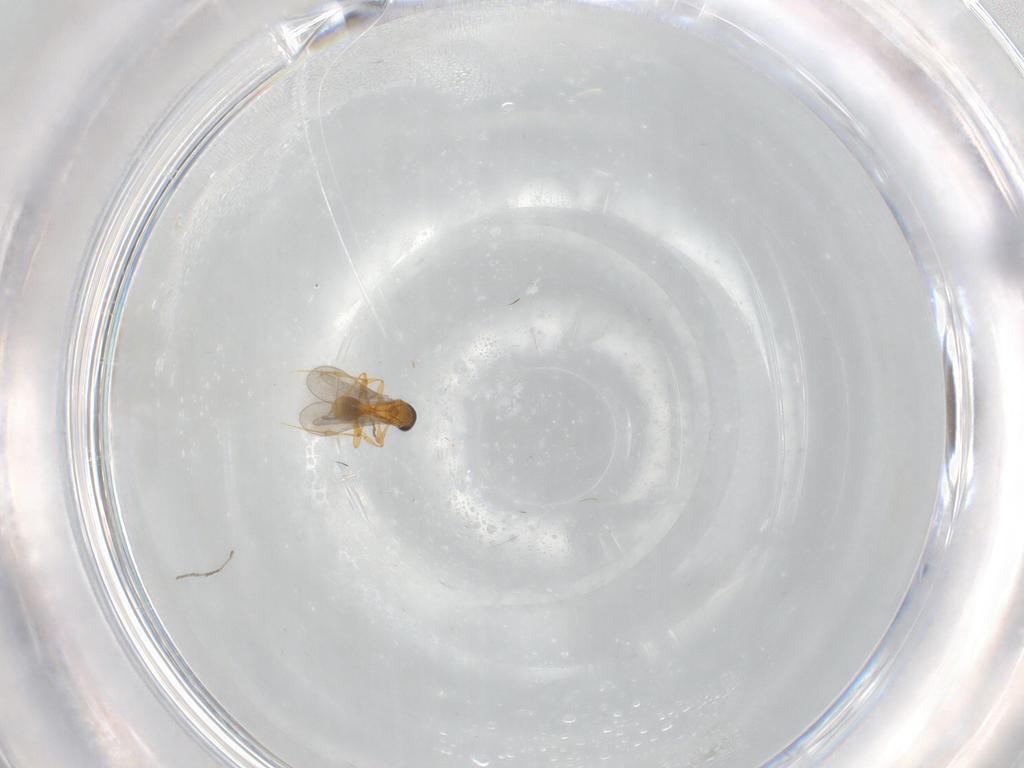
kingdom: Animalia
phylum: Arthropoda
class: Insecta
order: Hymenoptera
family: Platygastridae
